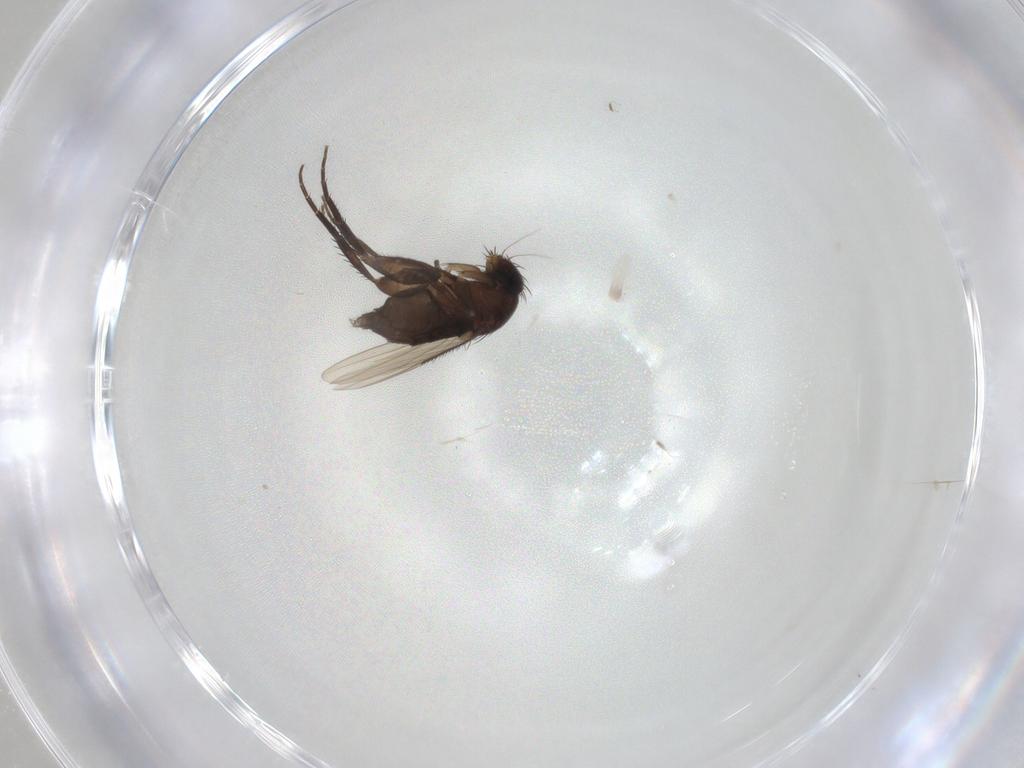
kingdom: Animalia
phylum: Arthropoda
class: Insecta
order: Diptera
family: Phoridae
